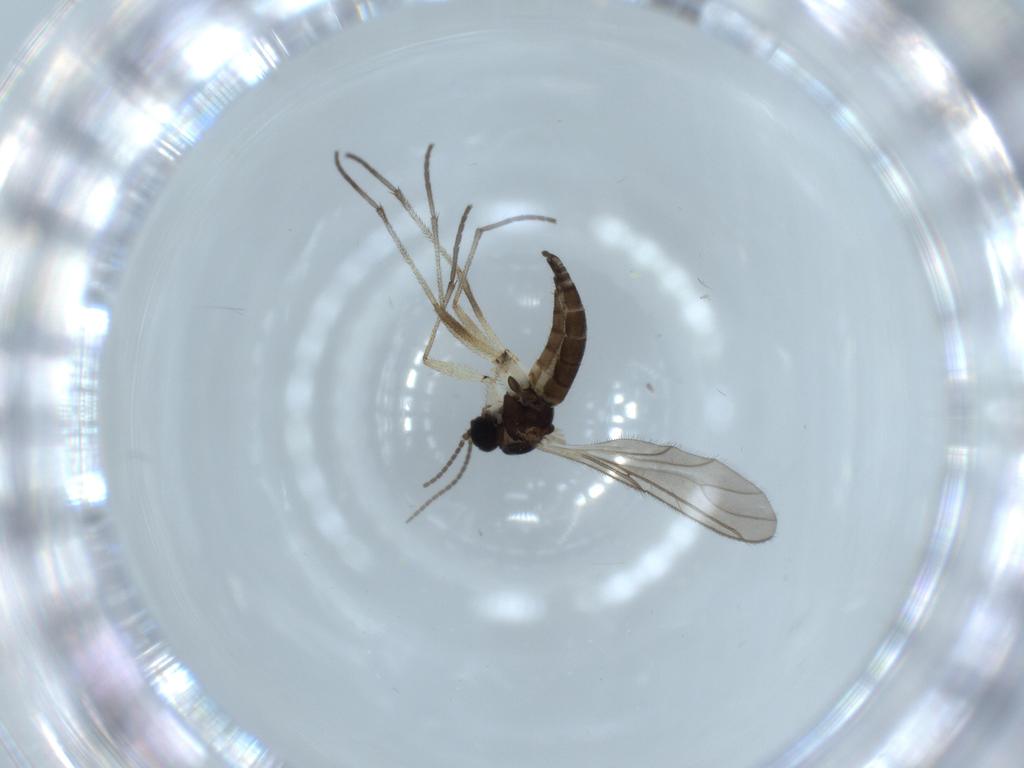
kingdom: Animalia
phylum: Arthropoda
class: Insecta
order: Diptera
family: Sciaridae
